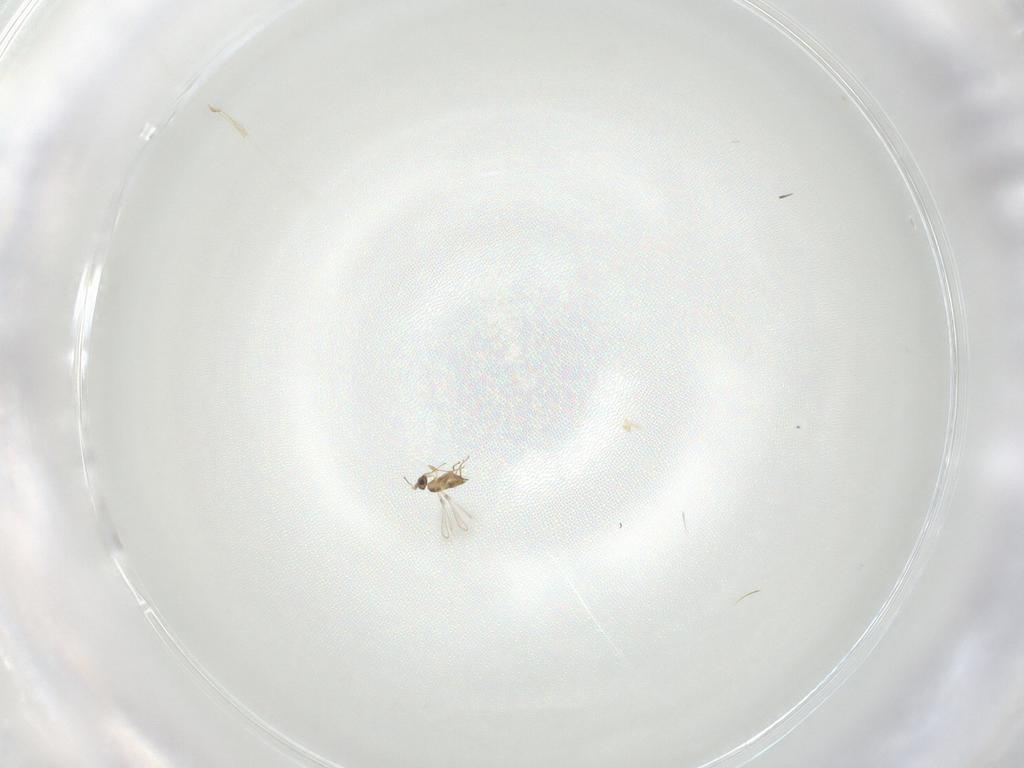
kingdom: Animalia
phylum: Arthropoda
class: Insecta
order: Hymenoptera
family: Mymaridae
